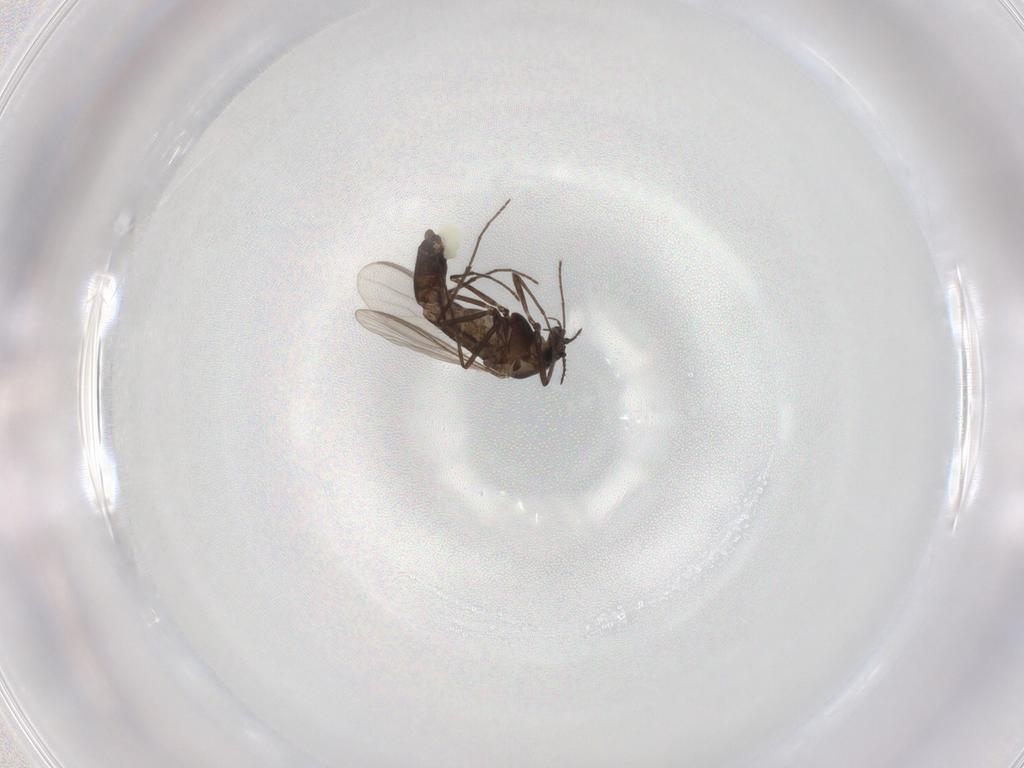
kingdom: Animalia
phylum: Arthropoda
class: Insecta
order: Diptera
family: Chironomidae
